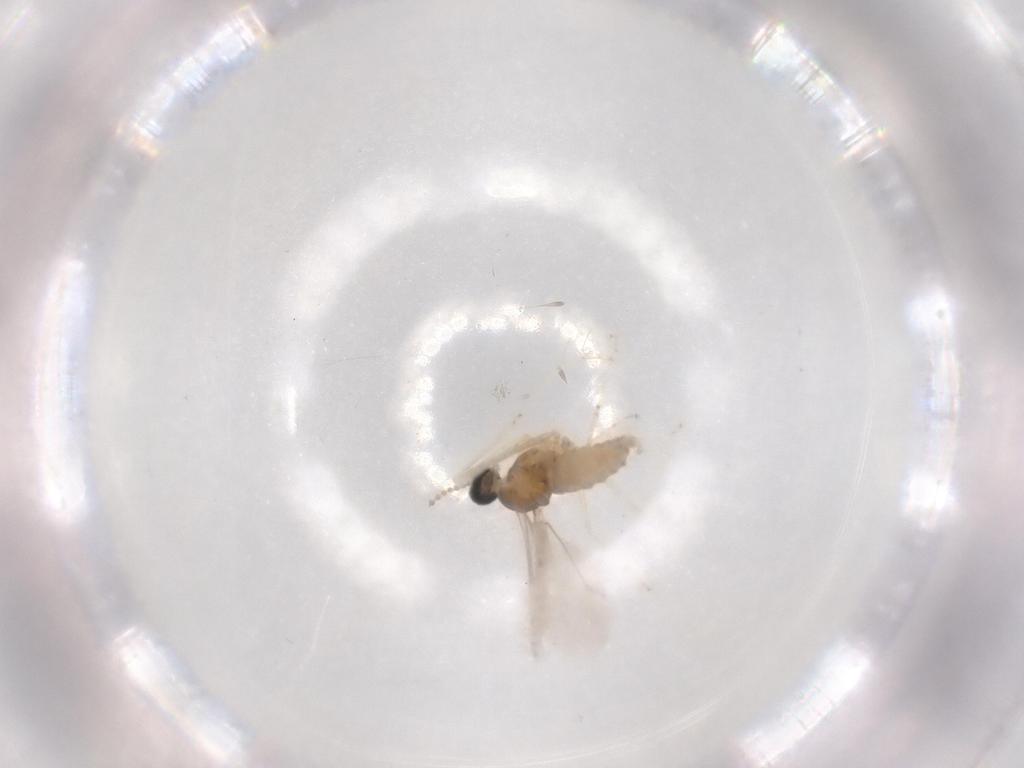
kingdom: Animalia
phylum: Arthropoda
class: Insecta
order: Diptera
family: Cecidomyiidae
